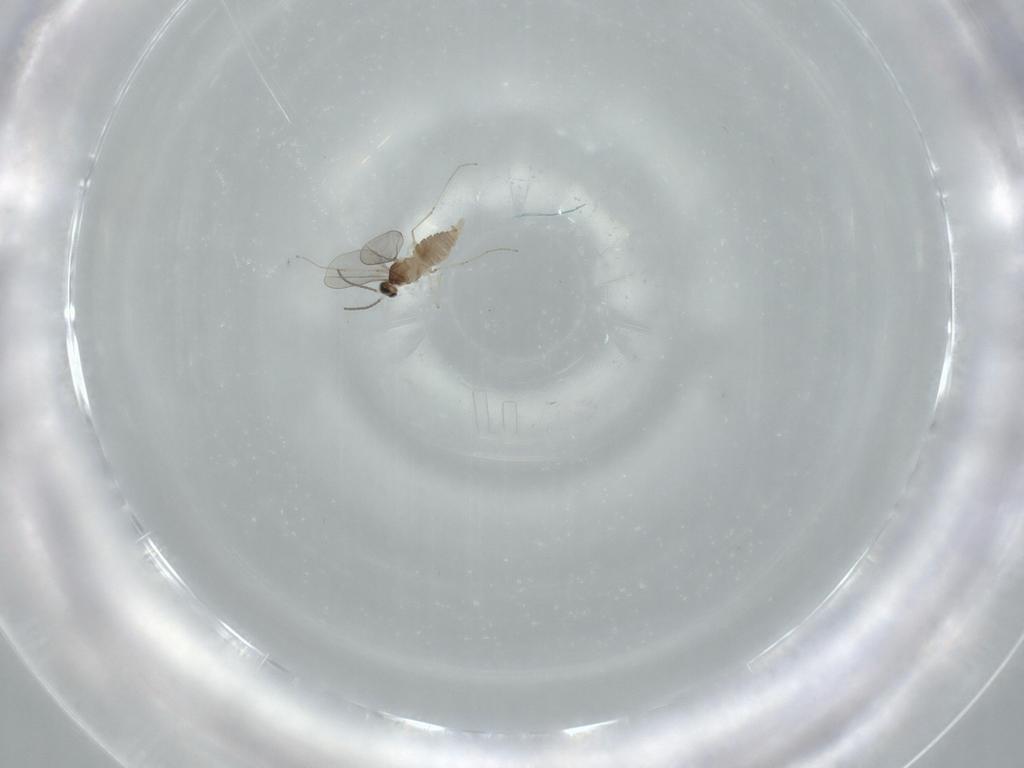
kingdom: Animalia
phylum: Arthropoda
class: Insecta
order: Diptera
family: Cecidomyiidae
